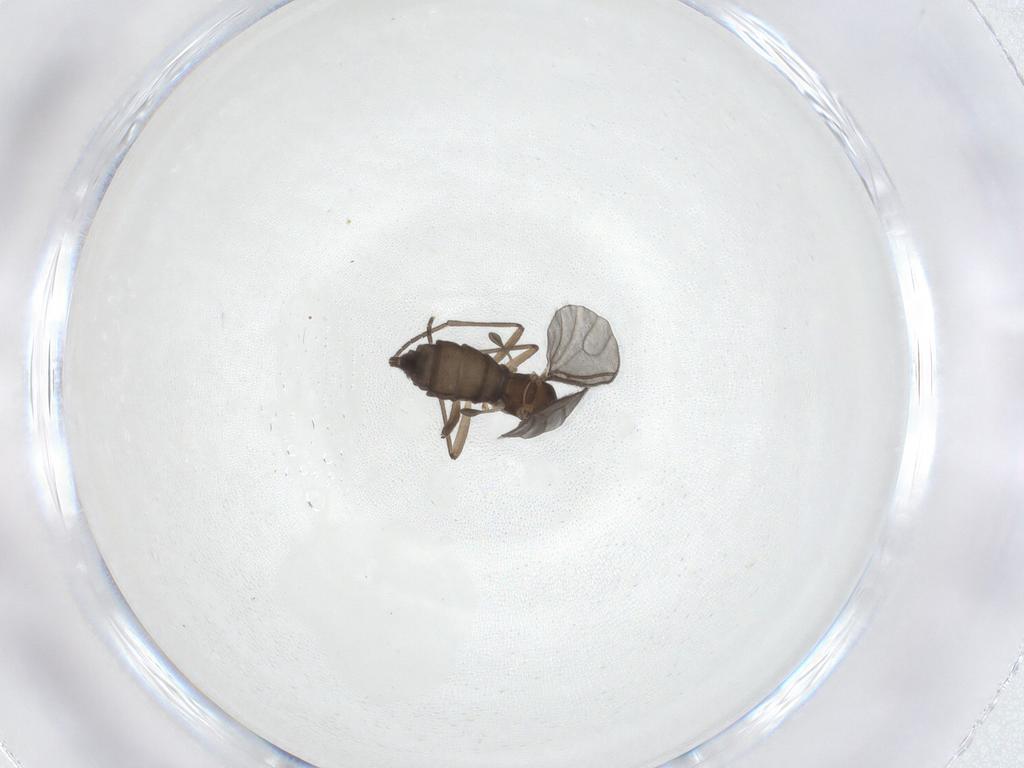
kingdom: Animalia
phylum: Arthropoda
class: Insecta
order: Diptera
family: Sciaridae
